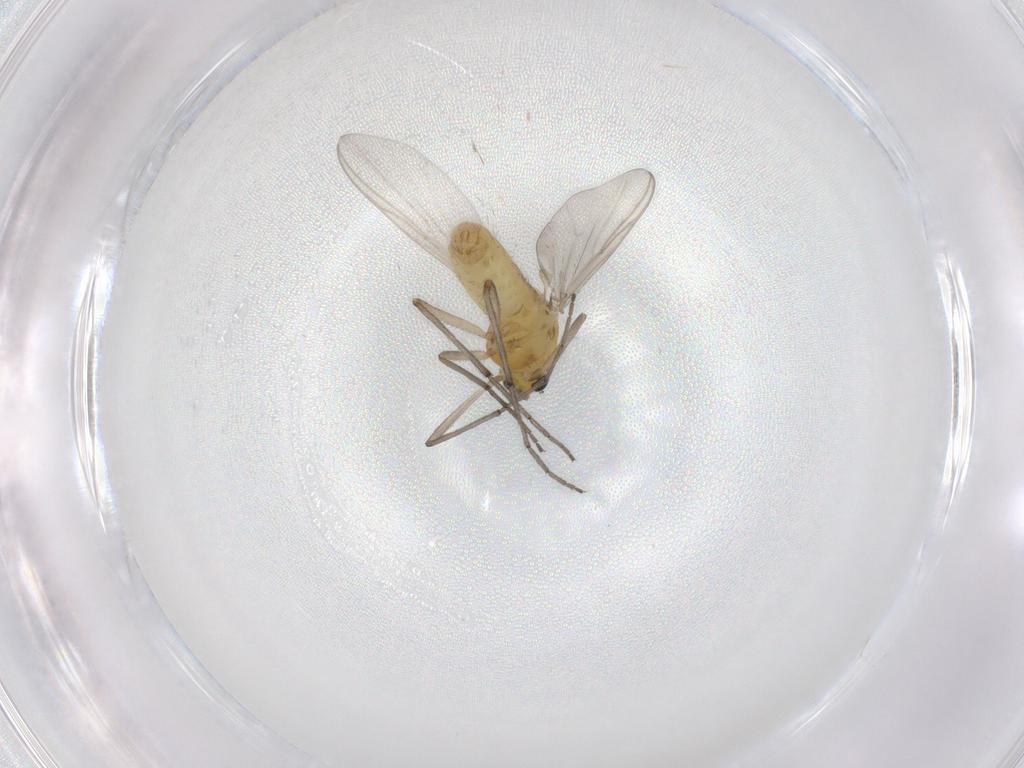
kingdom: Animalia
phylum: Arthropoda
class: Insecta
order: Diptera
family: Chironomidae
